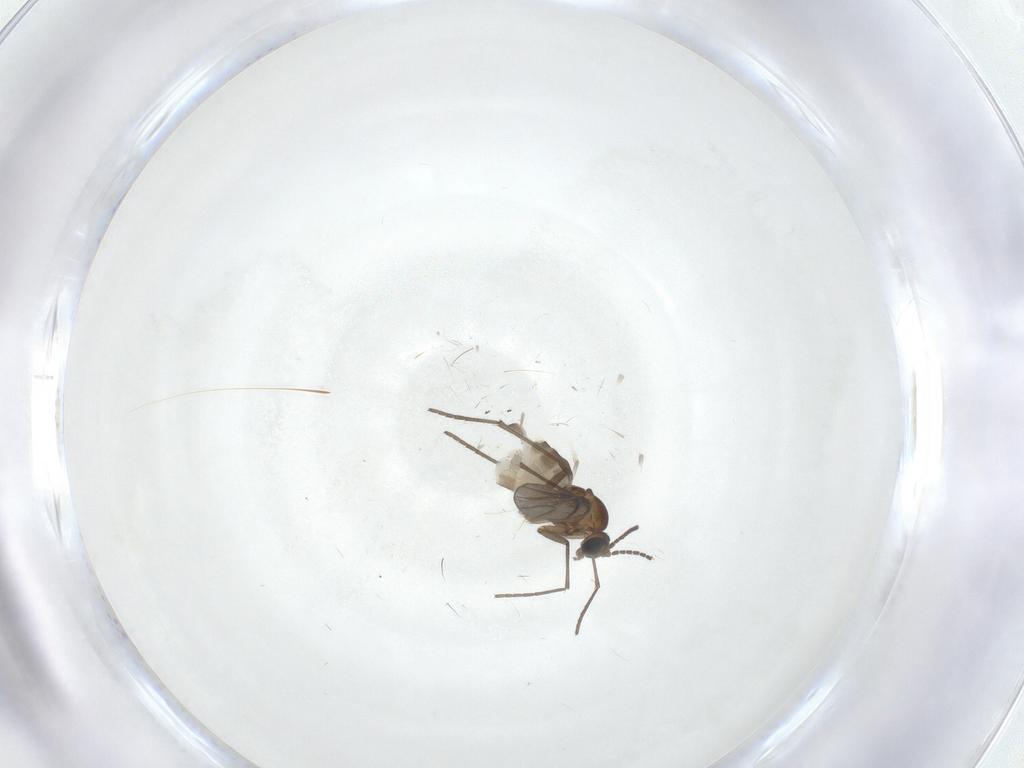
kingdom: Animalia
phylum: Arthropoda
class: Insecta
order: Diptera
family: Sciaridae
